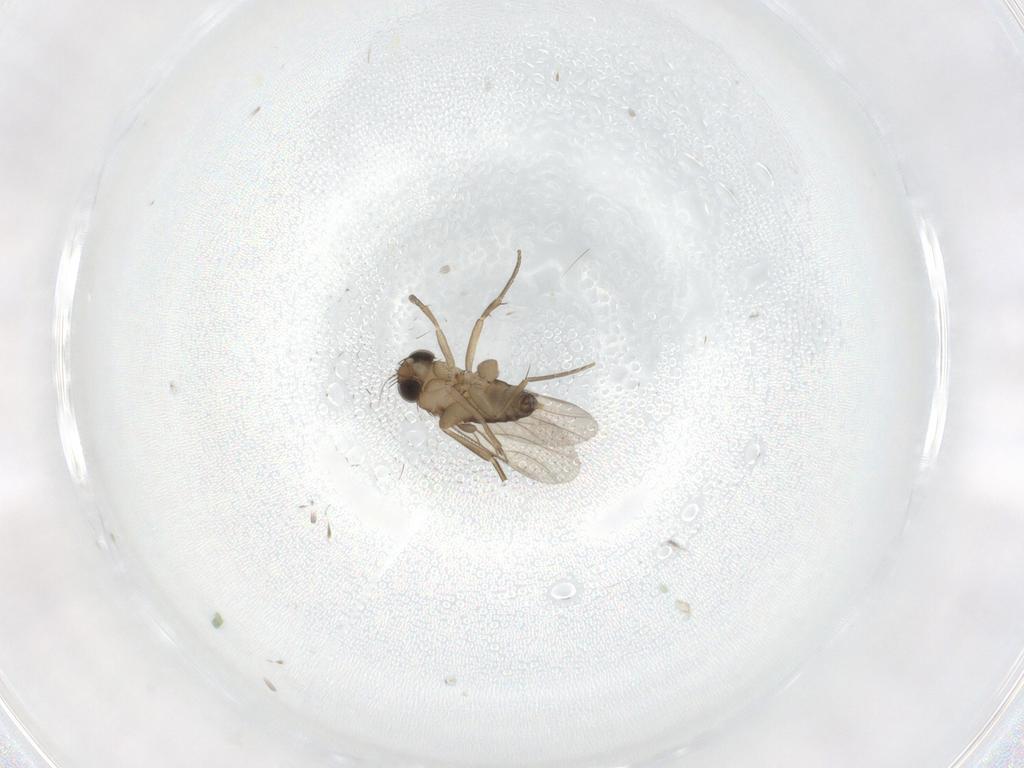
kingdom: Animalia
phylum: Arthropoda
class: Insecta
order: Diptera
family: Phoridae
